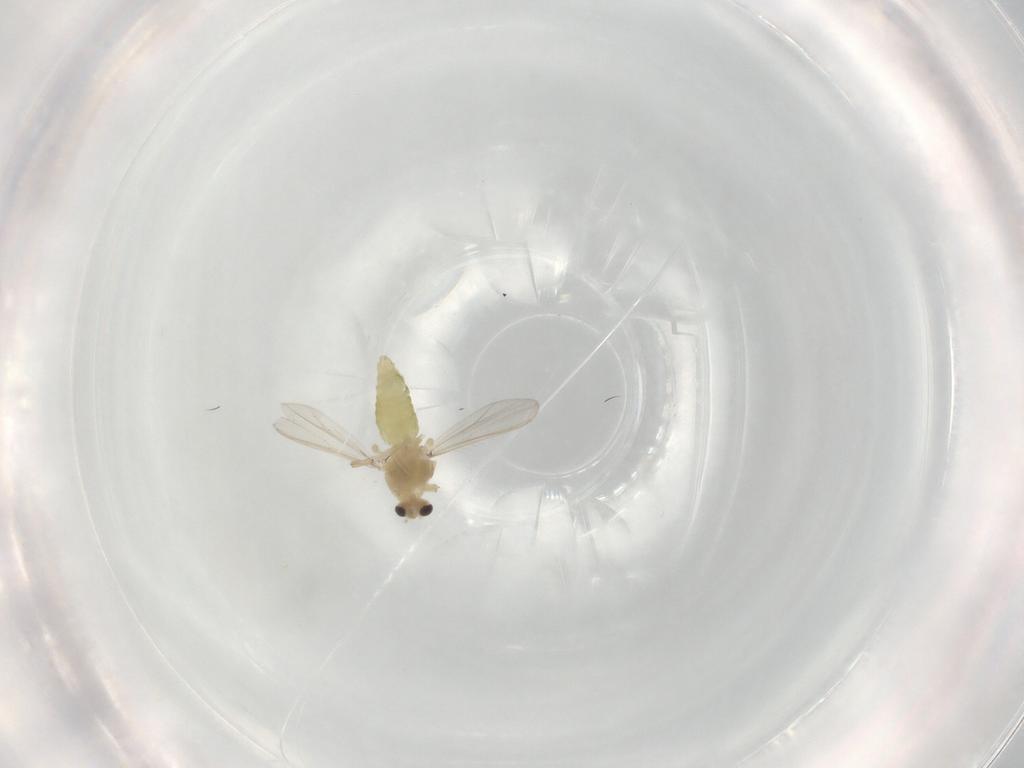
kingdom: Animalia
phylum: Arthropoda
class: Insecta
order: Diptera
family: Chironomidae
